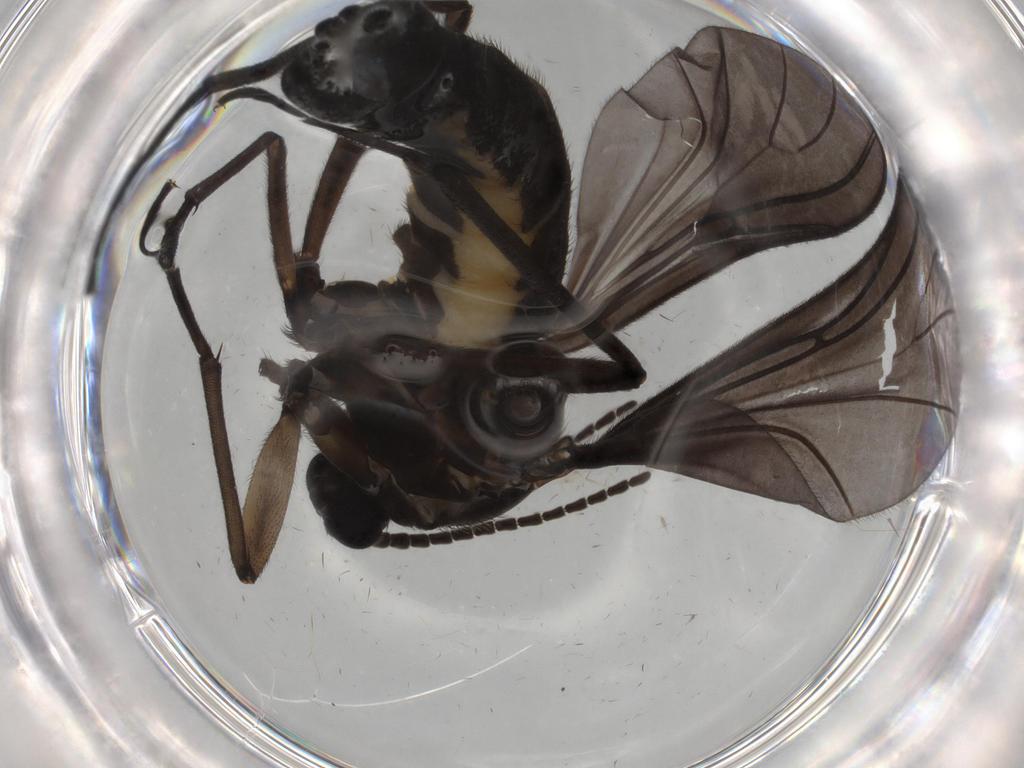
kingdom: Animalia
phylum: Arthropoda
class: Insecta
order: Diptera
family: Sciaridae
